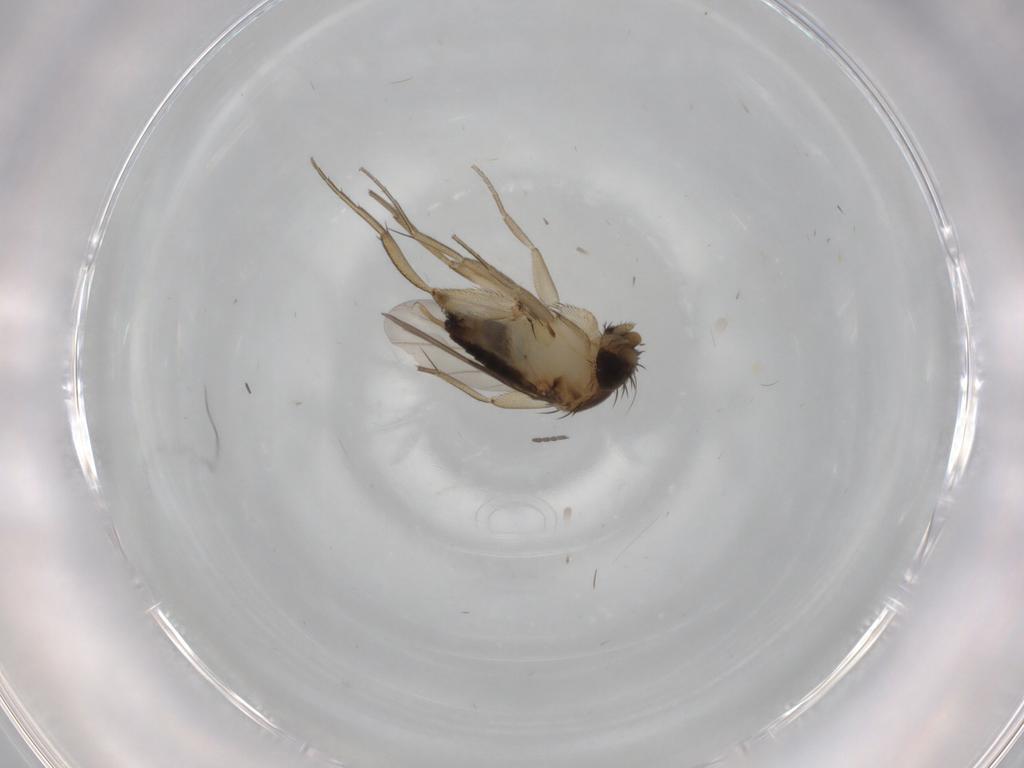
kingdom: Animalia
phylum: Arthropoda
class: Insecta
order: Diptera
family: Phoridae
